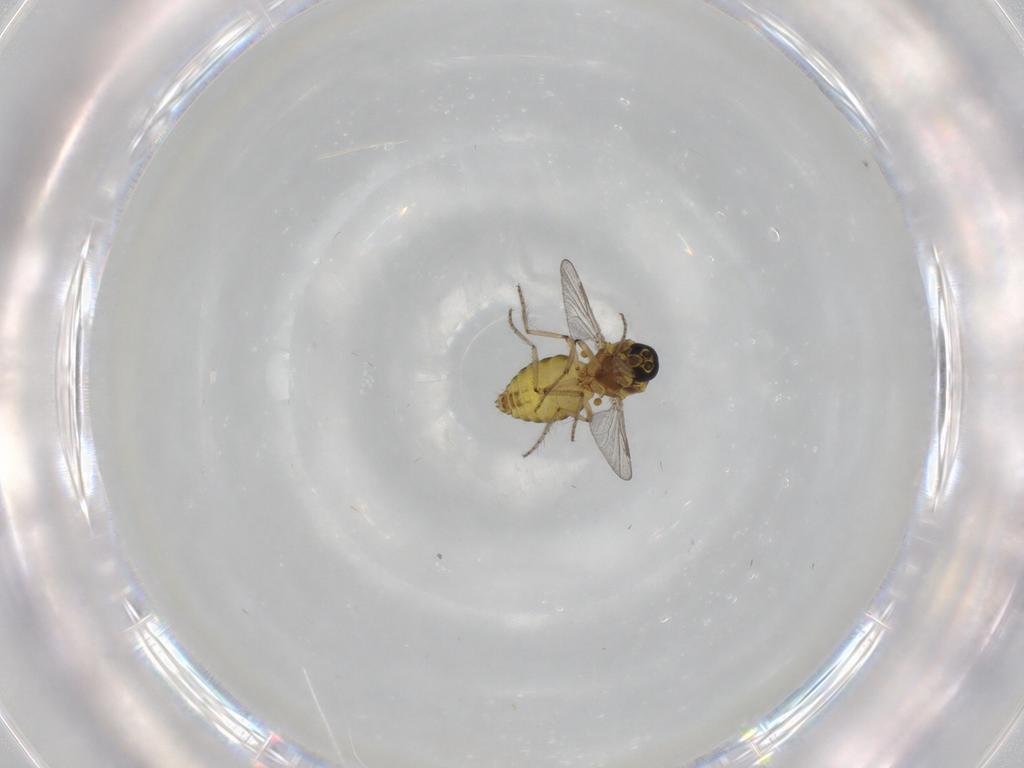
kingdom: Animalia
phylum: Arthropoda
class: Insecta
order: Diptera
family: Ceratopogonidae
